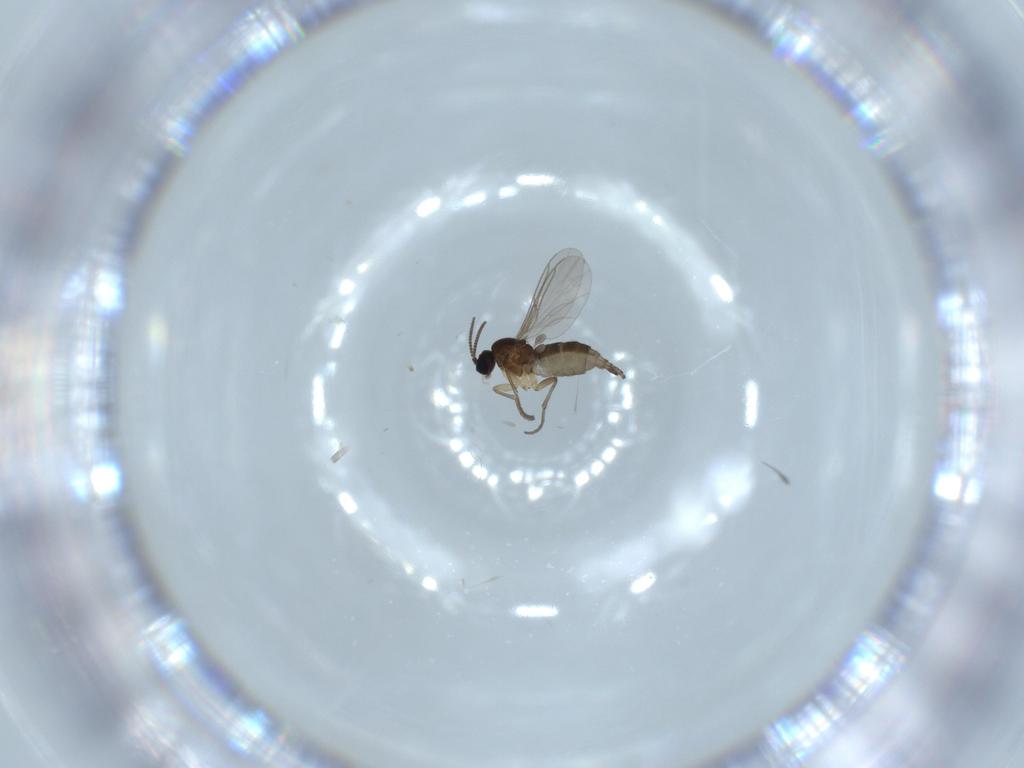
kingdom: Animalia
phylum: Arthropoda
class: Insecta
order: Diptera
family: Sciaridae
